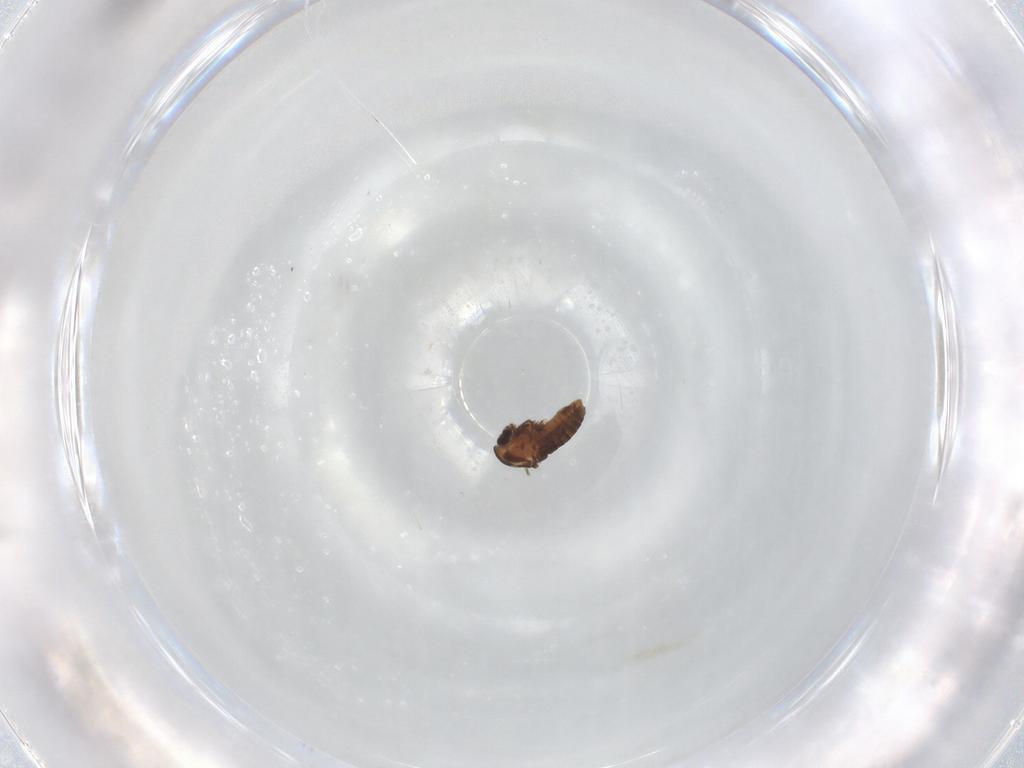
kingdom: Animalia
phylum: Arthropoda
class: Insecta
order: Diptera
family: Chironomidae
